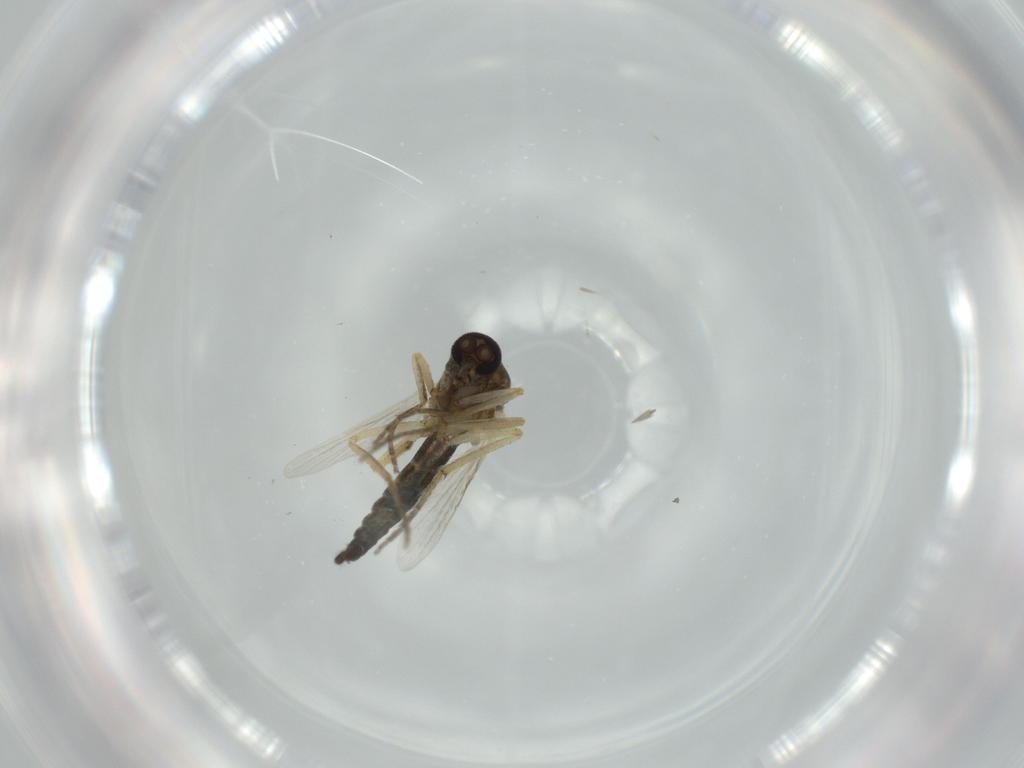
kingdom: Animalia
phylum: Arthropoda
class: Insecta
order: Diptera
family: Ceratopogonidae
